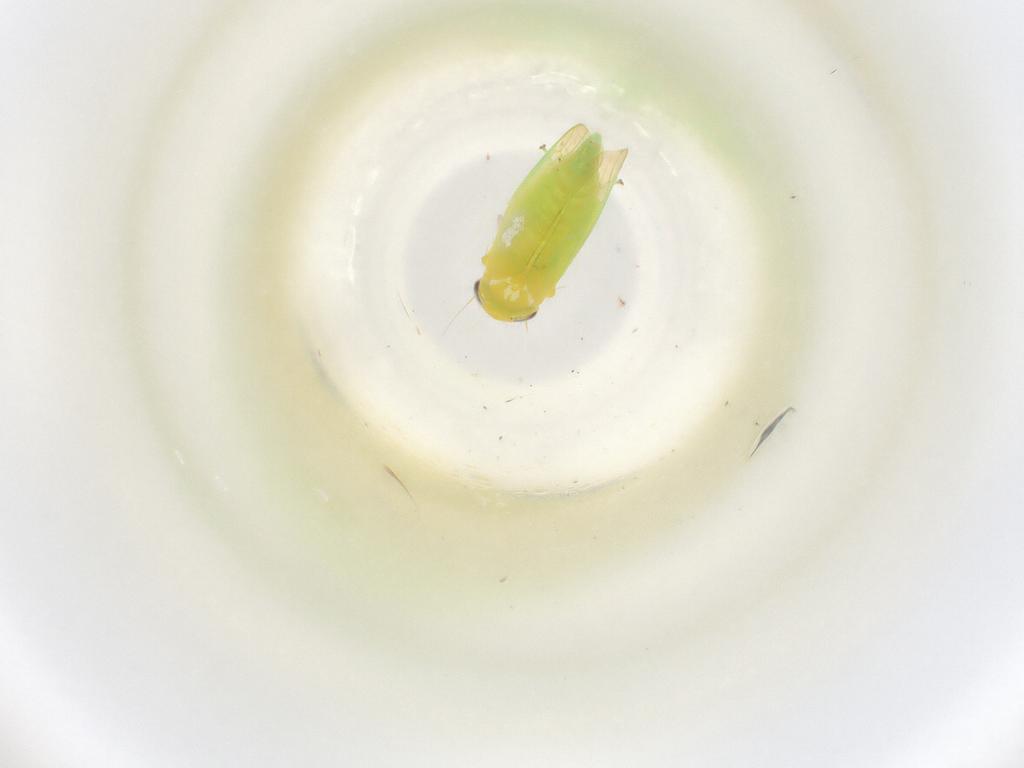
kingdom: Animalia
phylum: Arthropoda
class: Insecta
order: Hemiptera
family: Cicadellidae
